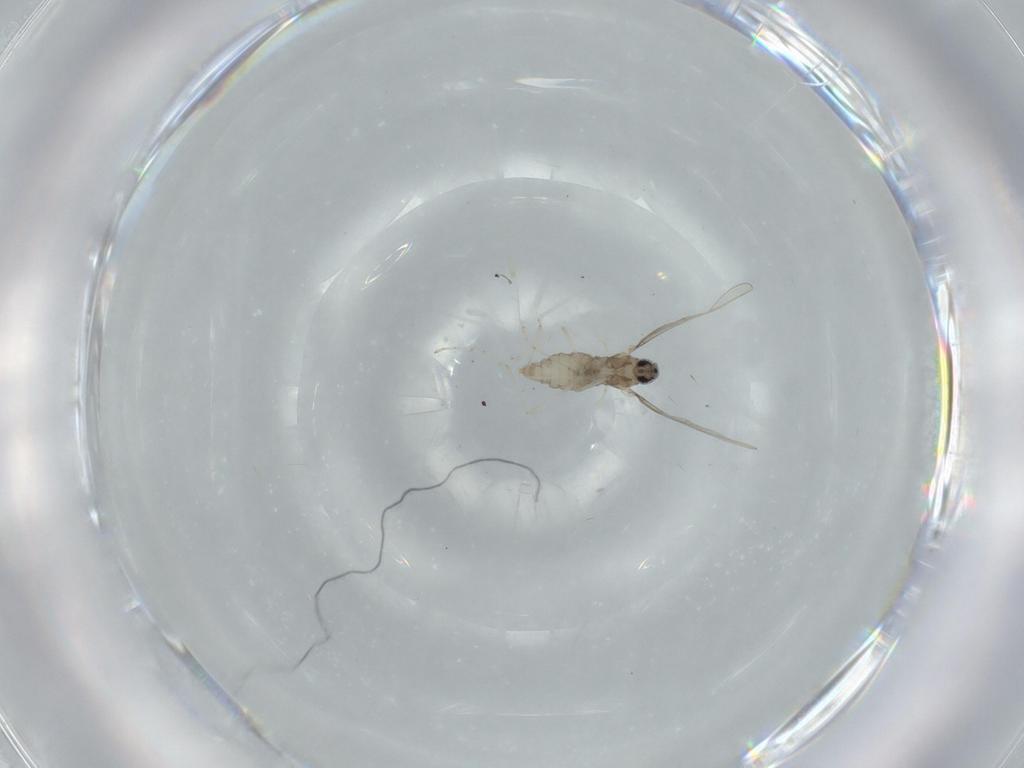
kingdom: Animalia
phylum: Arthropoda
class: Insecta
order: Diptera
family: Cecidomyiidae
